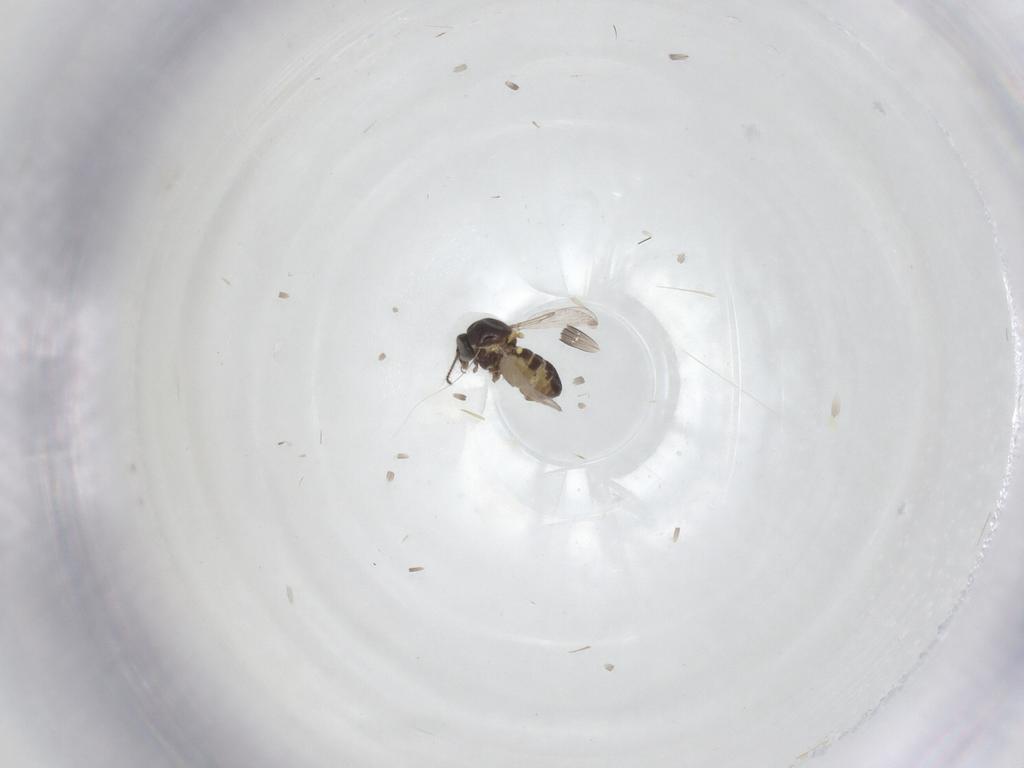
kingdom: Animalia
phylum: Arthropoda
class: Insecta
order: Diptera
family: Ceratopogonidae
